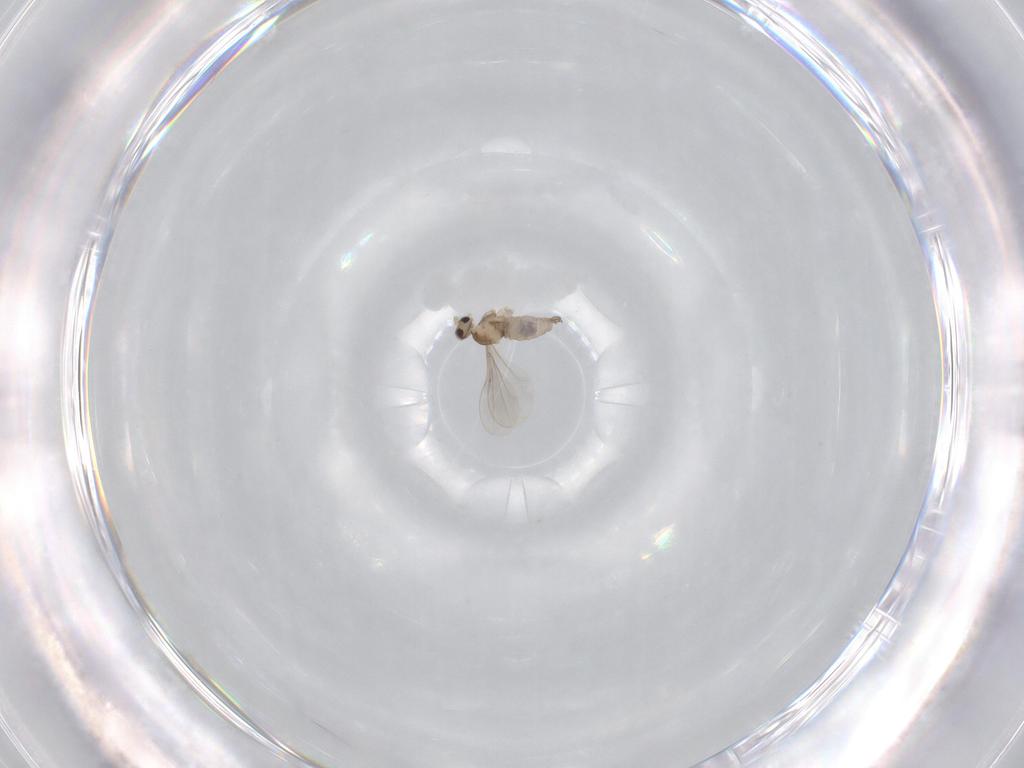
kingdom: Animalia
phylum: Arthropoda
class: Insecta
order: Diptera
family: Cecidomyiidae
